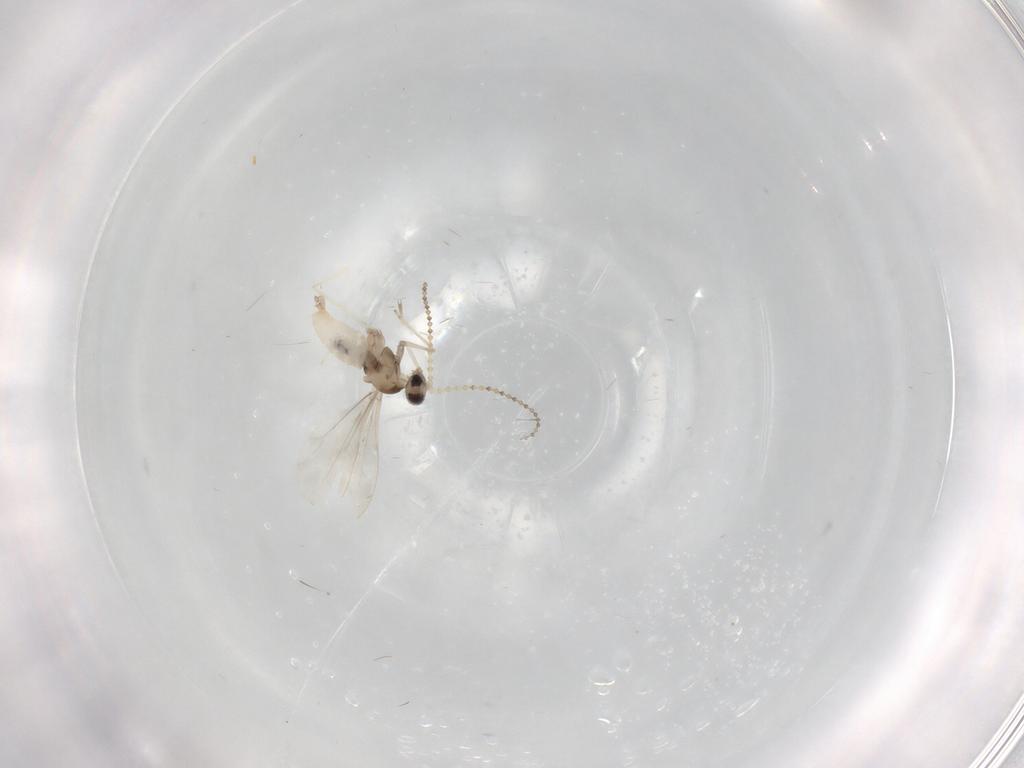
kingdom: Animalia
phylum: Arthropoda
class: Insecta
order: Diptera
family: Cecidomyiidae
